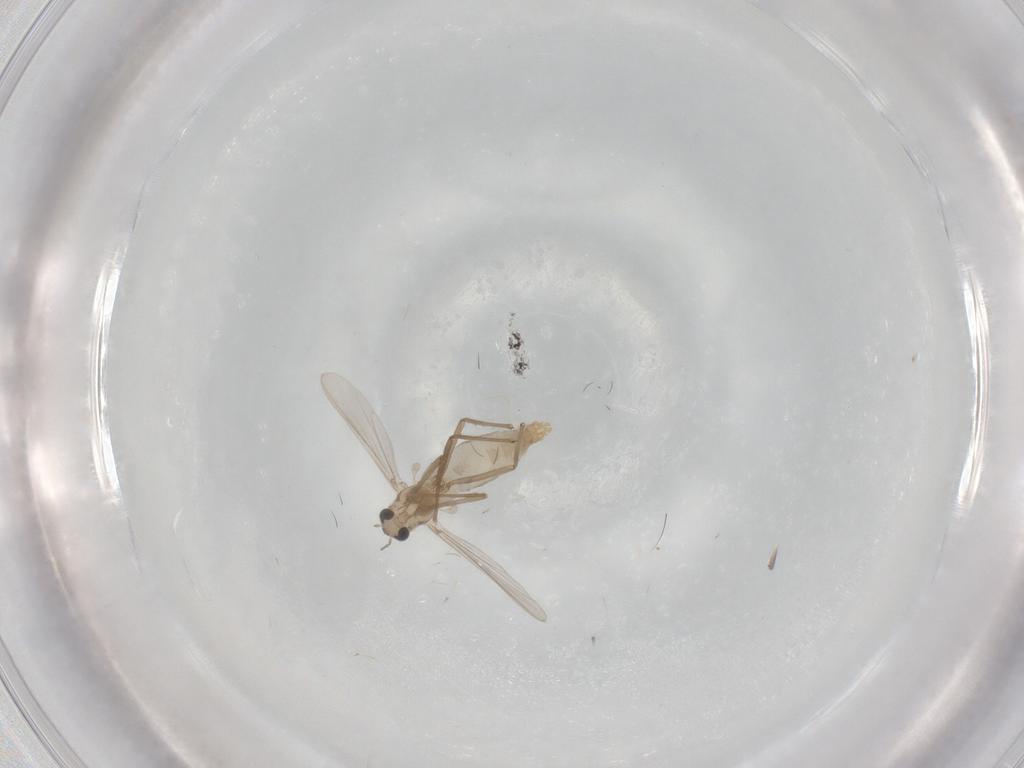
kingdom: Animalia
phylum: Arthropoda
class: Insecta
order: Diptera
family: Chironomidae
